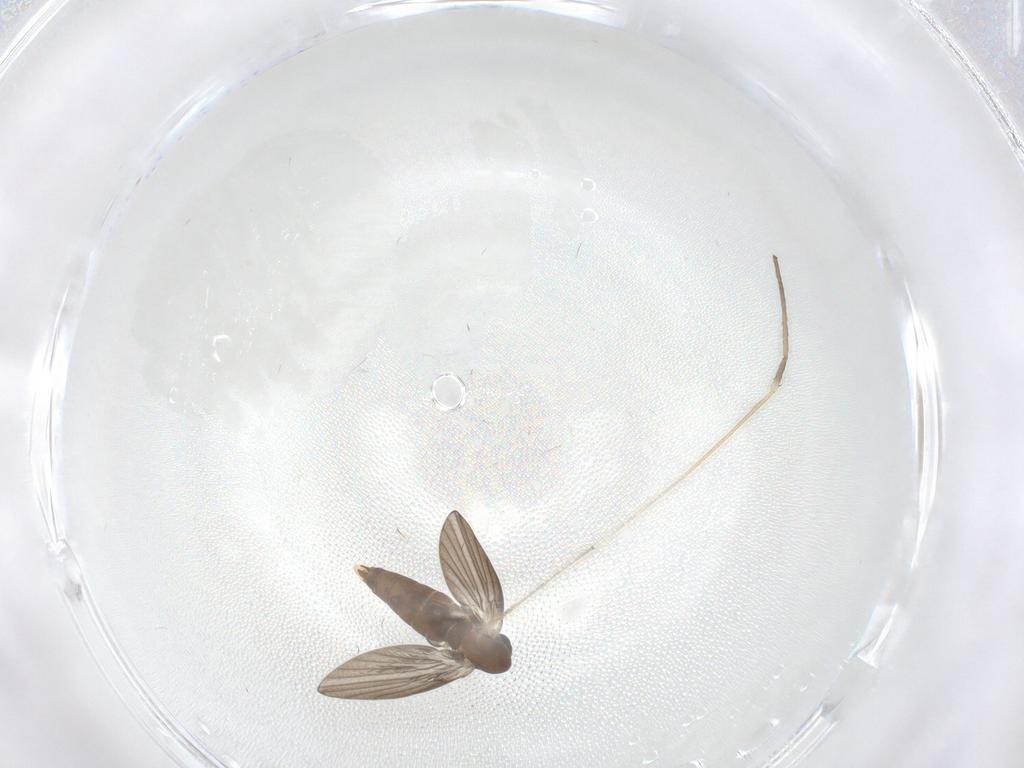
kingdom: Animalia
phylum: Arthropoda
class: Insecta
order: Diptera
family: Psychodidae
